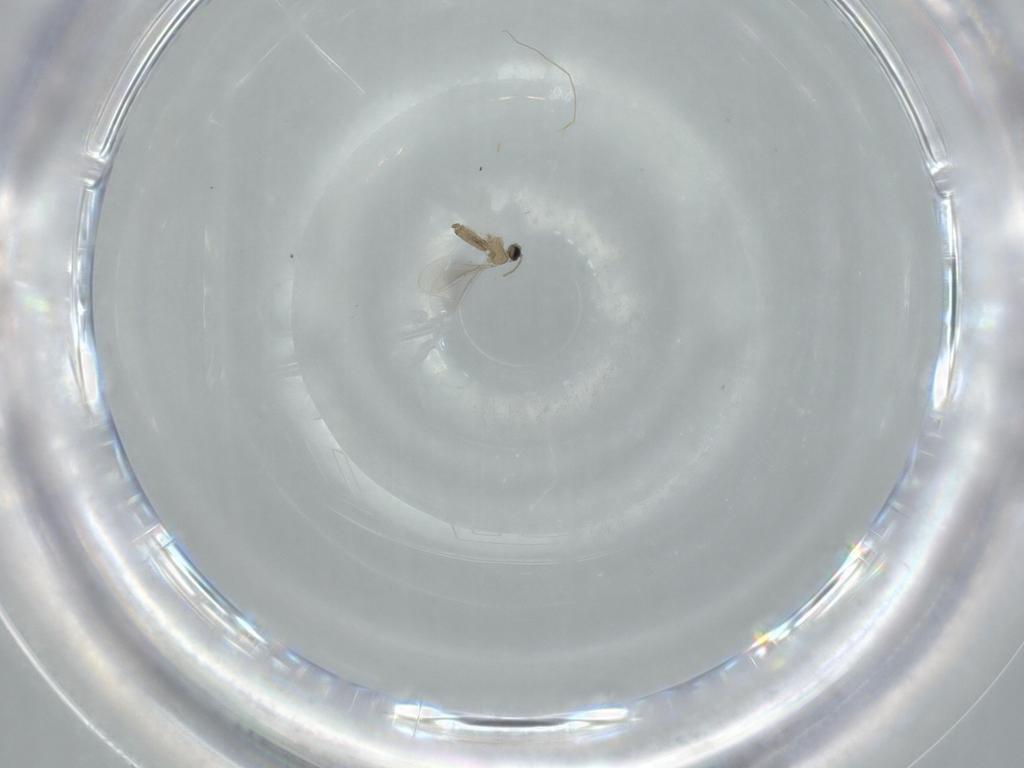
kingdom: Animalia
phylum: Arthropoda
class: Insecta
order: Diptera
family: Cecidomyiidae
